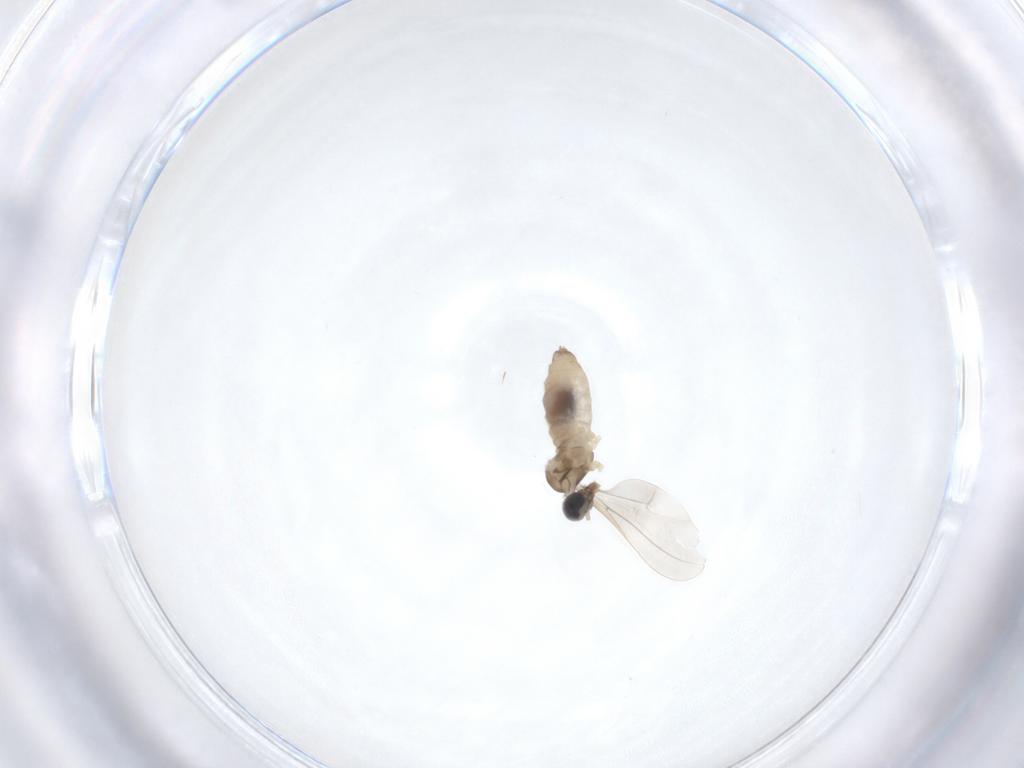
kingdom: Animalia
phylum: Arthropoda
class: Insecta
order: Diptera
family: Cecidomyiidae
